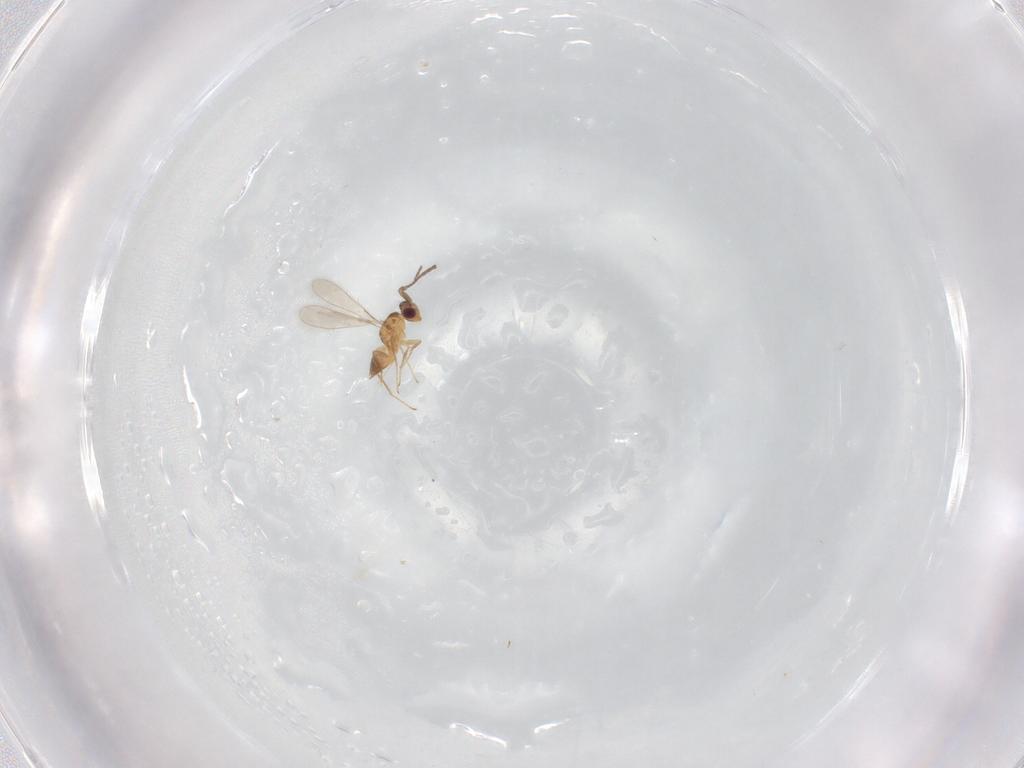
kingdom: Animalia
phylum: Arthropoda
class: Insecta
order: Hymenoptera
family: Mymaridae
